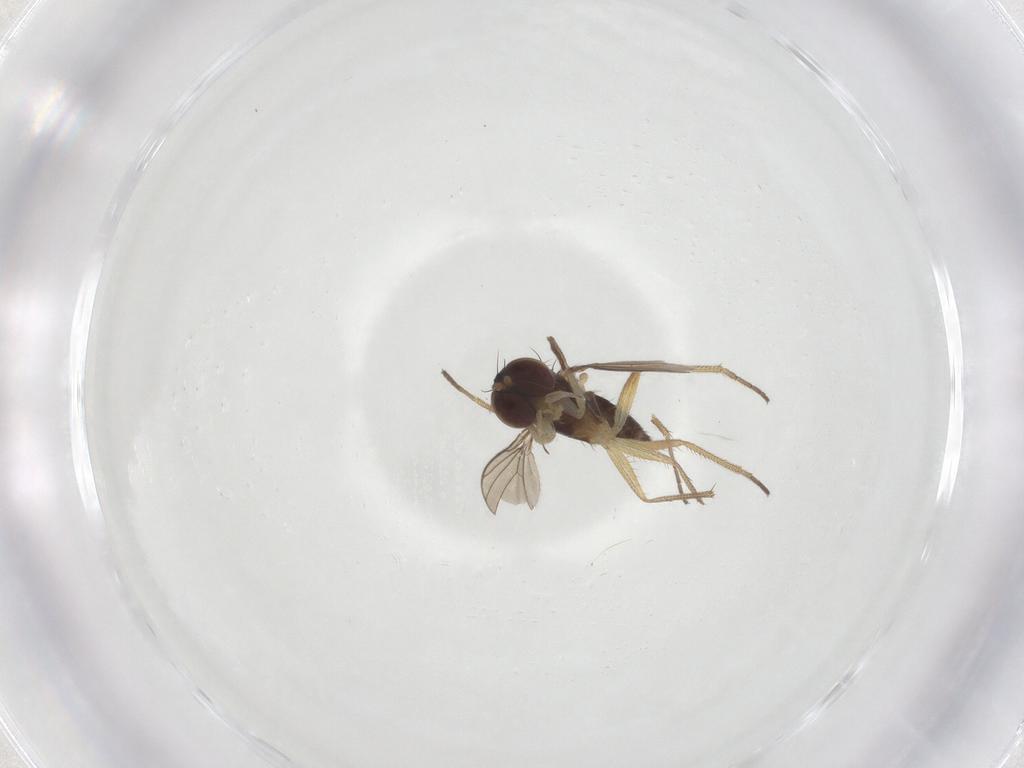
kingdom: Animalia
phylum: Arthropoda
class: Insecta
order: Diptera
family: Dolichopodidae
